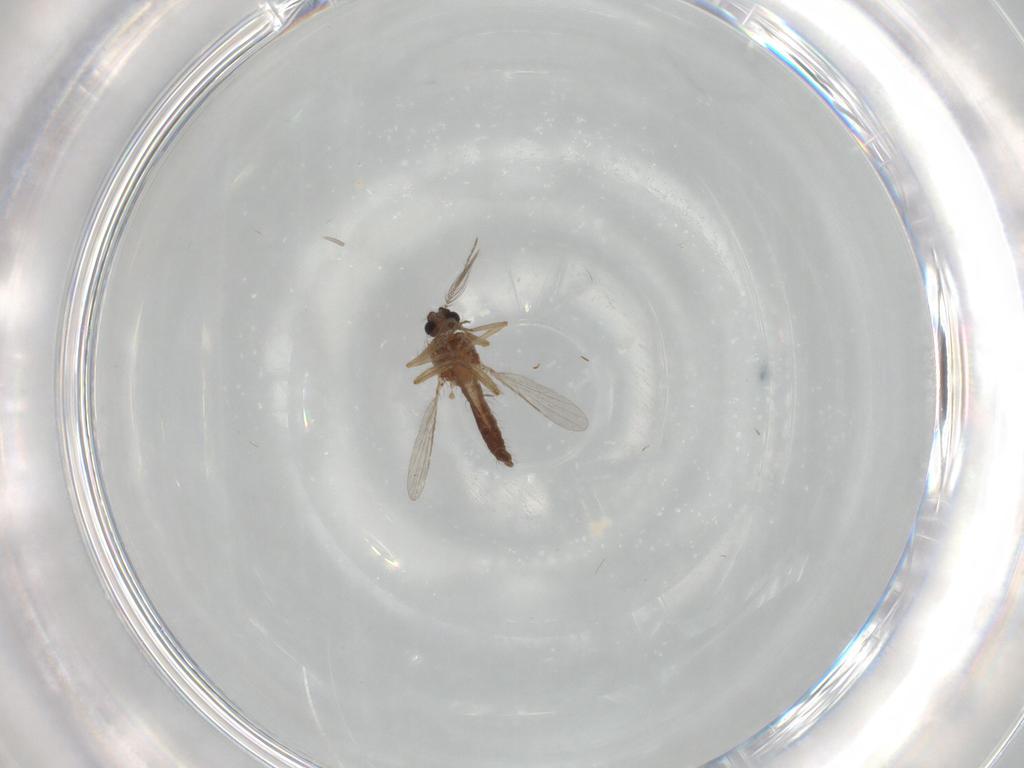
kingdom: Animalia
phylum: Arthropoda
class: Insecta
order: Diptera
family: Ceratopogonidae
